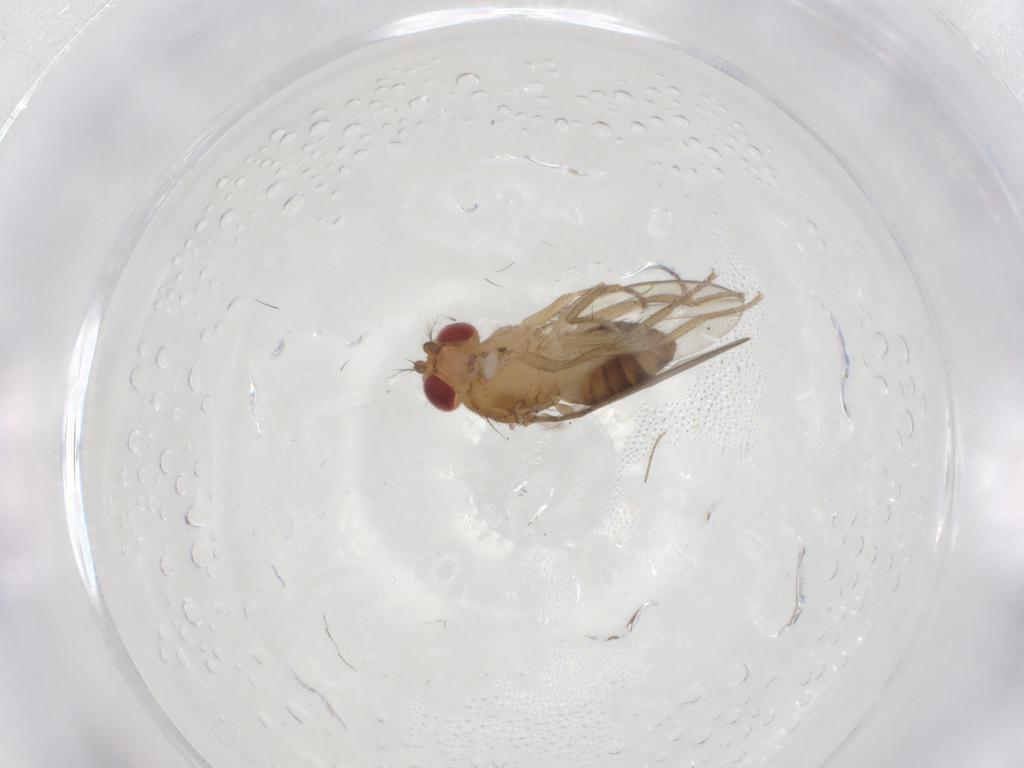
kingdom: Animalia
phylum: Arthropoda
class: Insecta
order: Diptera
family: Drosophilidae
